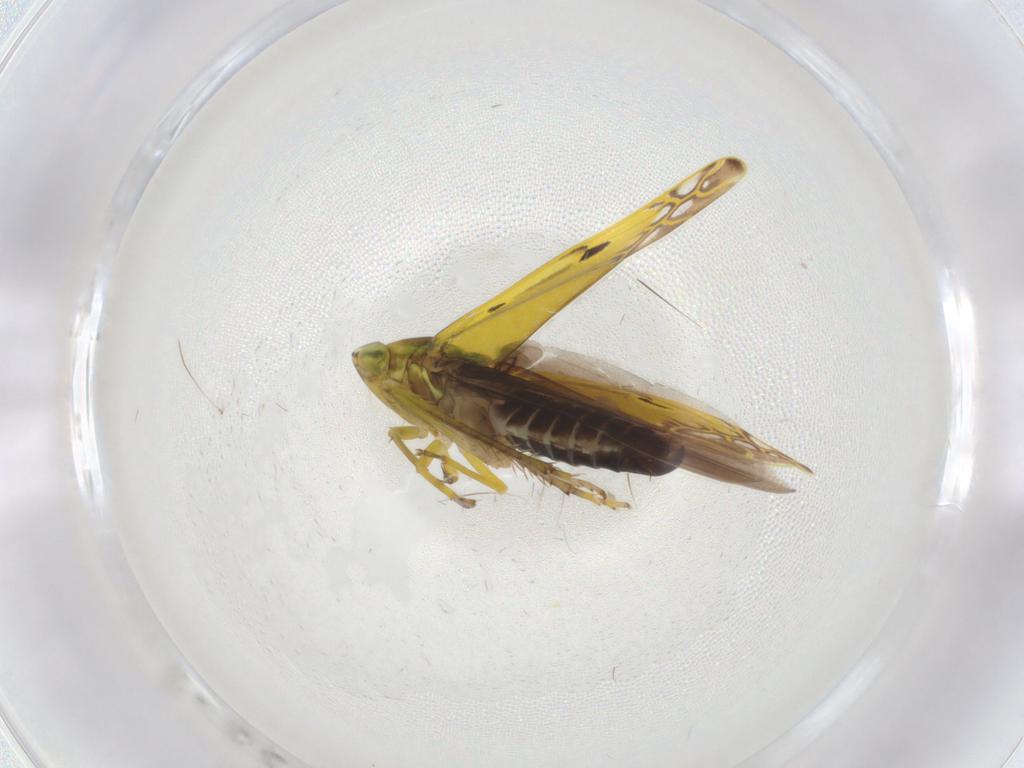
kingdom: Animalia
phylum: Arthropoda
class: Insecta
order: Hemiptera
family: Cicadellidae
